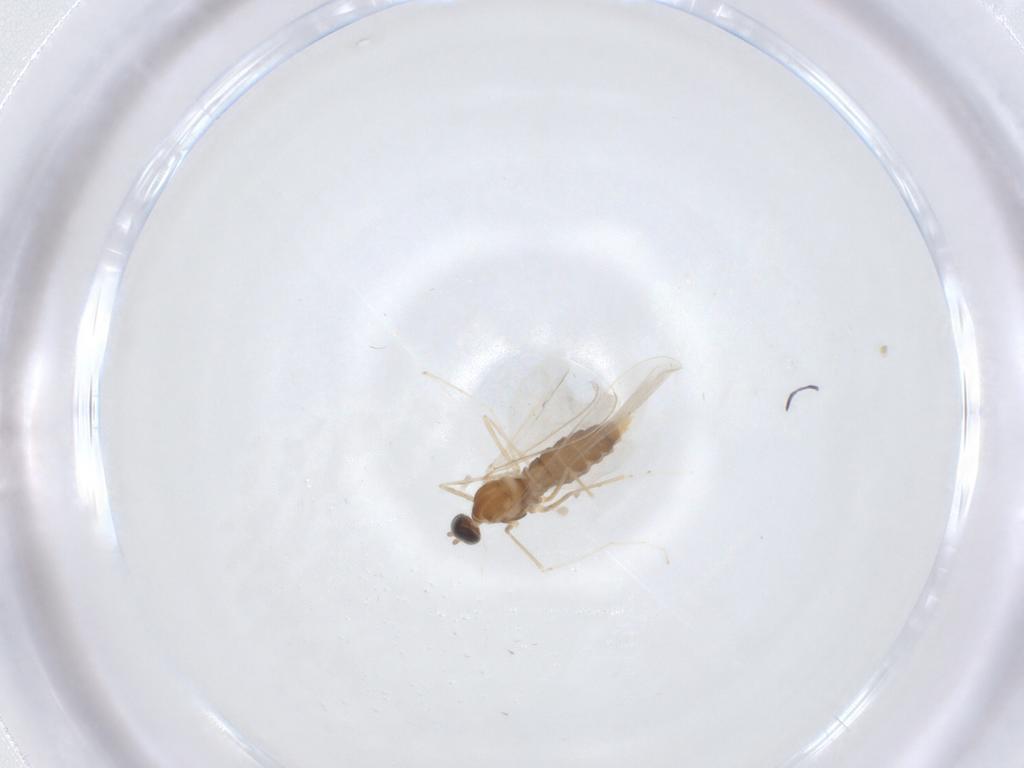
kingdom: Animalia
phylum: Arthropoda
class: Insecta
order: Diptera
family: Cecidomyiidae
